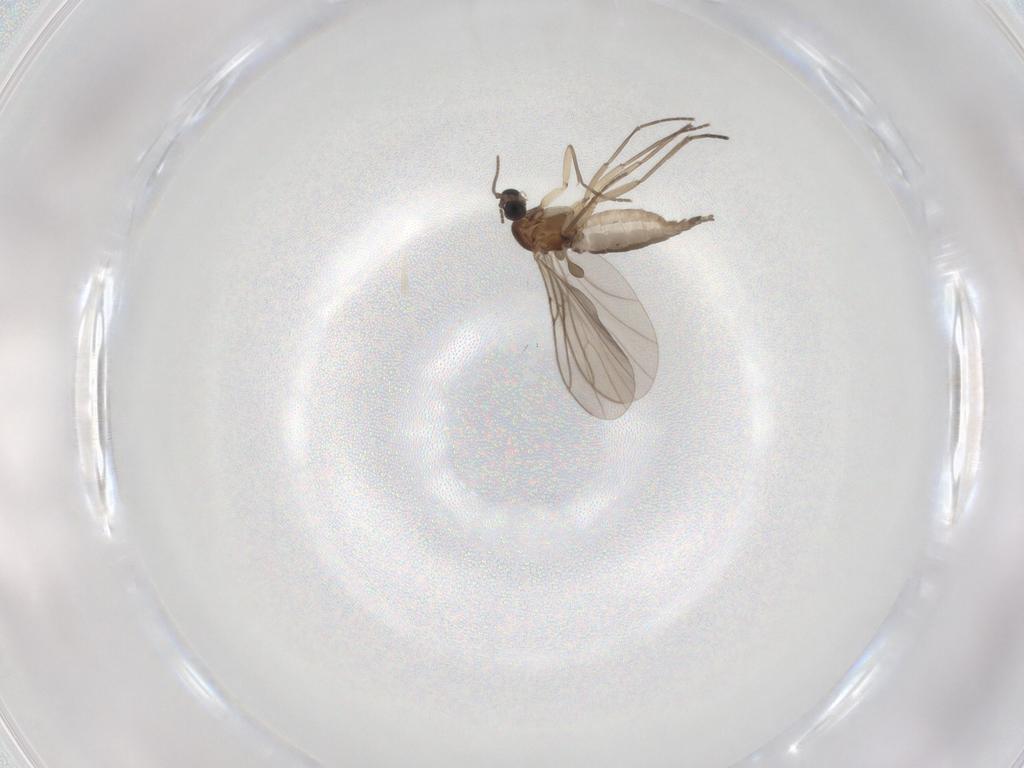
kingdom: Animalia
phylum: Arthropoda
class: Insecta
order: Diptera
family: Sciaridae
